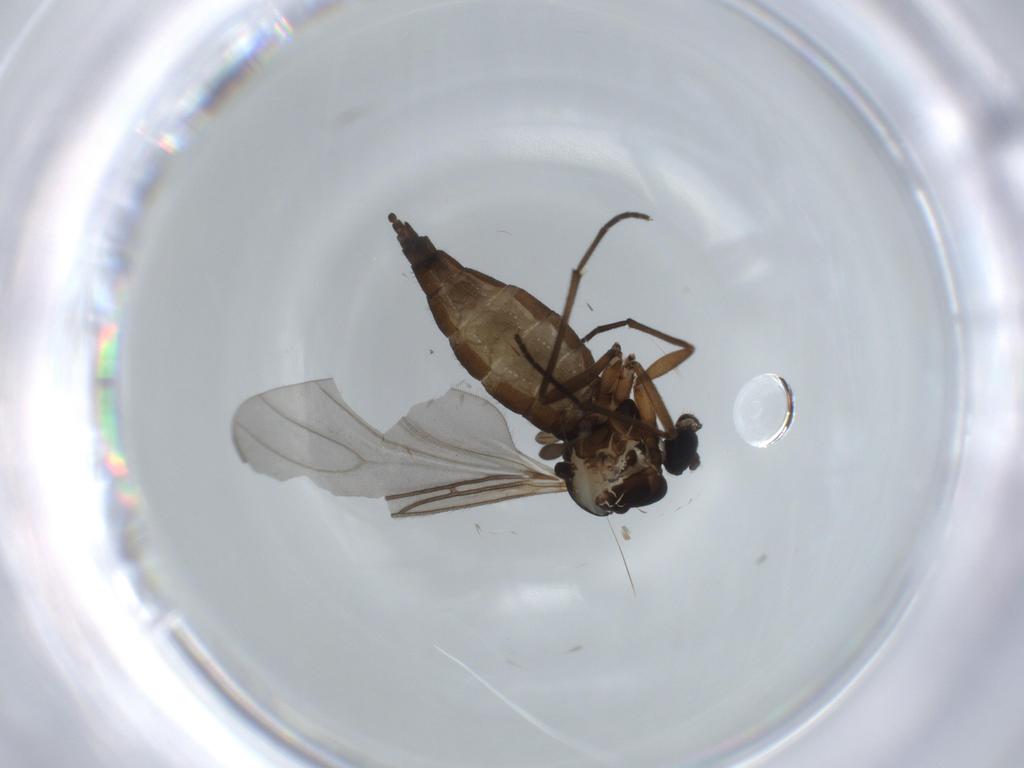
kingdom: Animalia
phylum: Arthropoda
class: Insecta
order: Diptera
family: Sciaridae
